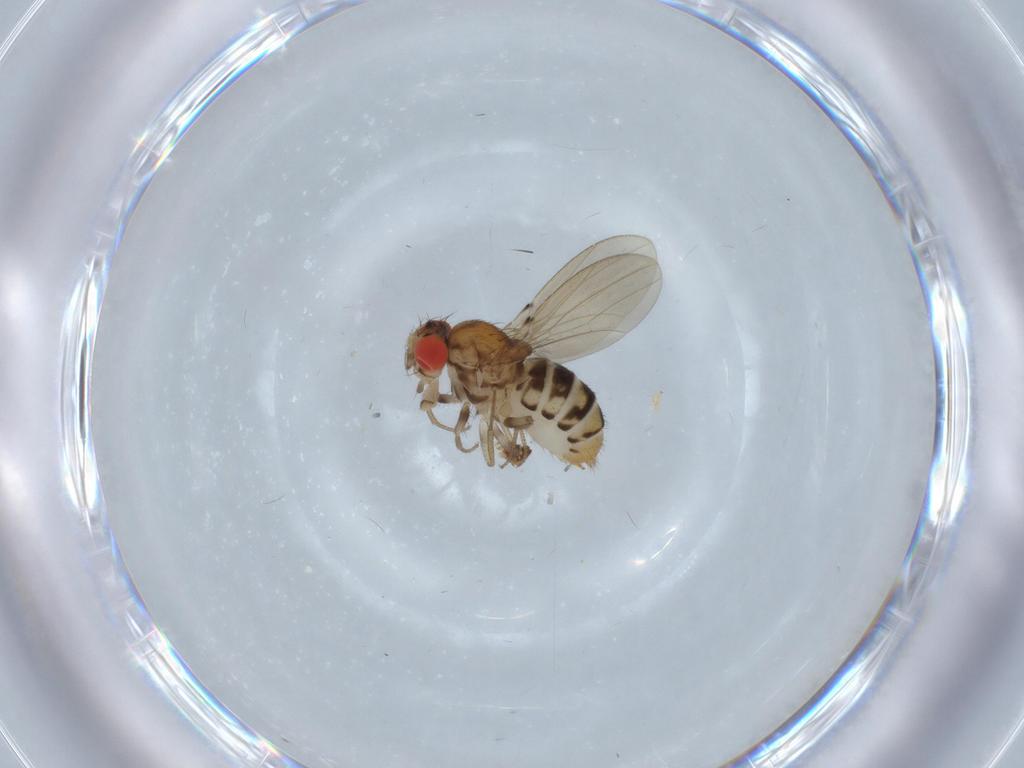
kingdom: Animalia
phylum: Arthropoda
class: Insecta
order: Diptera
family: Drosophilidae
